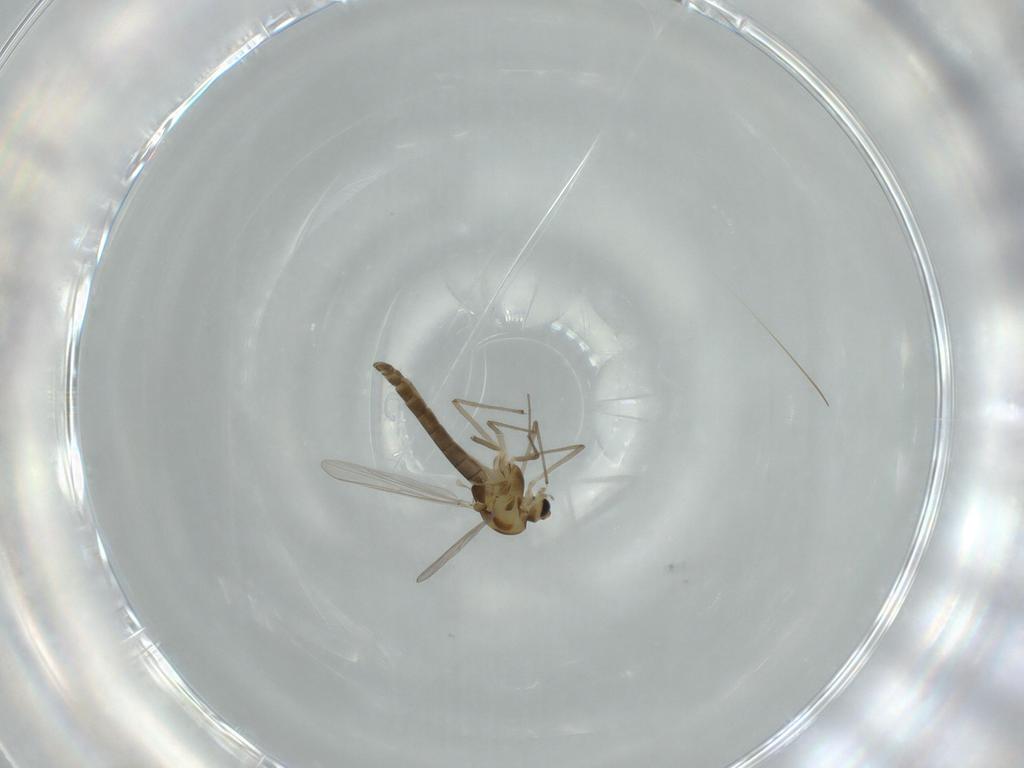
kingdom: Animalia
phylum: Arthropoda
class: Insecta
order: Diptera
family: Chironomidae
